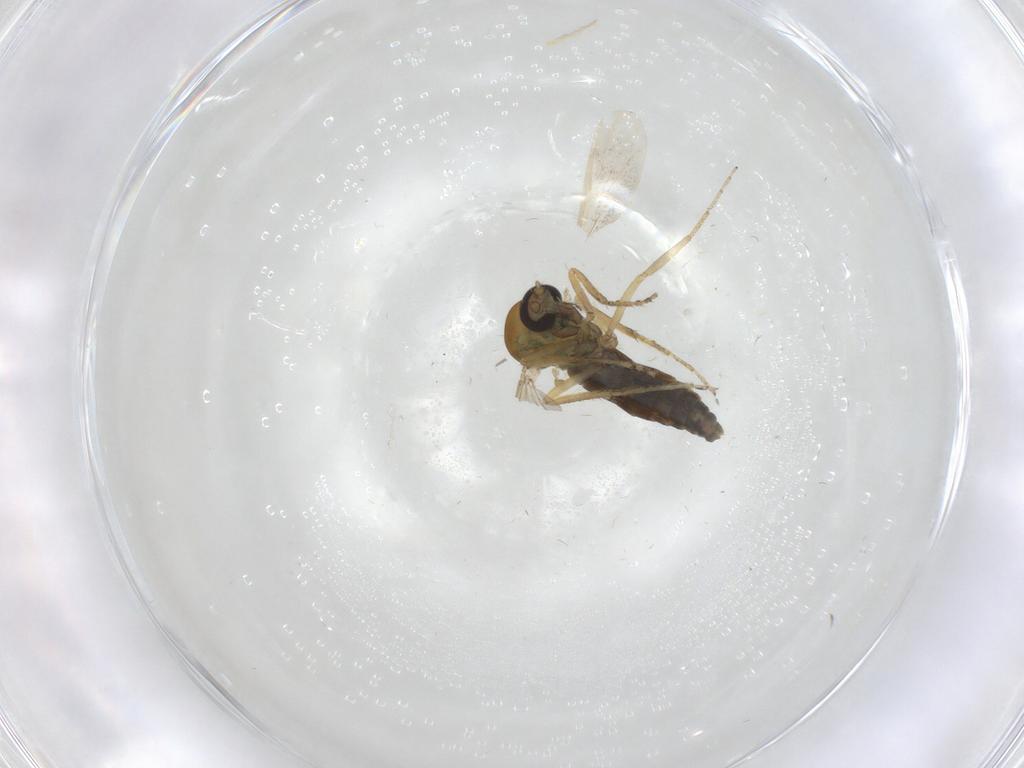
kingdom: Animalia
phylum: Arthropoda
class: Insecta
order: Diptera
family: Ceratopogonidae
